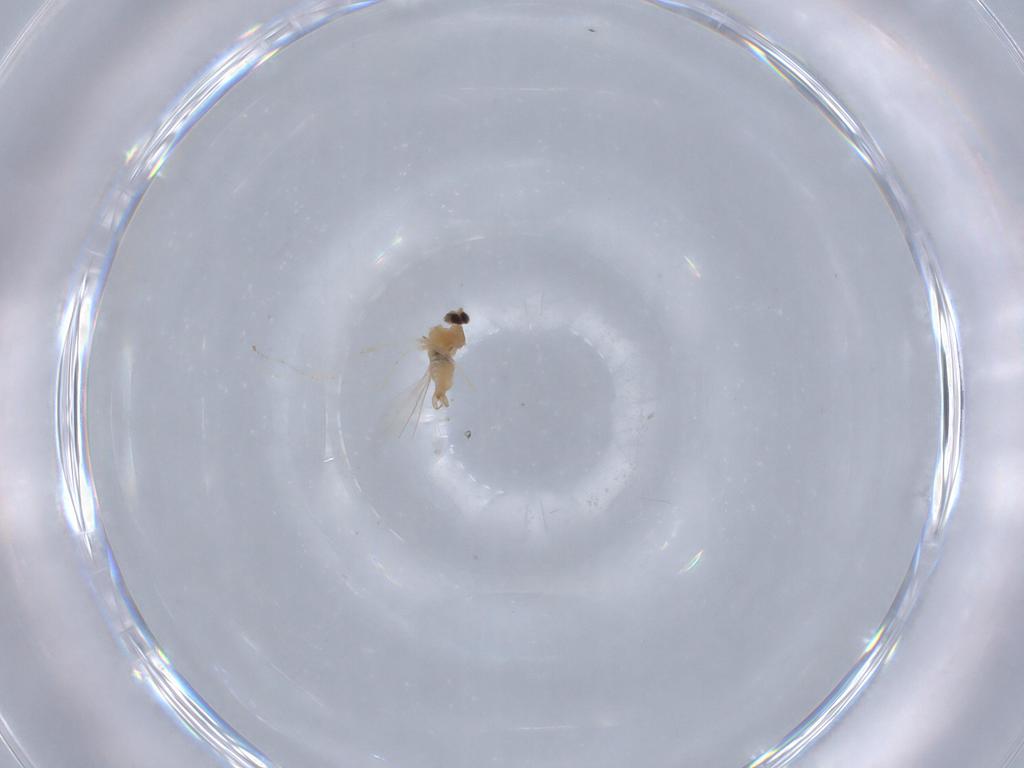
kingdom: Animalia
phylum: Arthropoda
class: Insecta
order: Diptera
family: Cecidomyiidae
